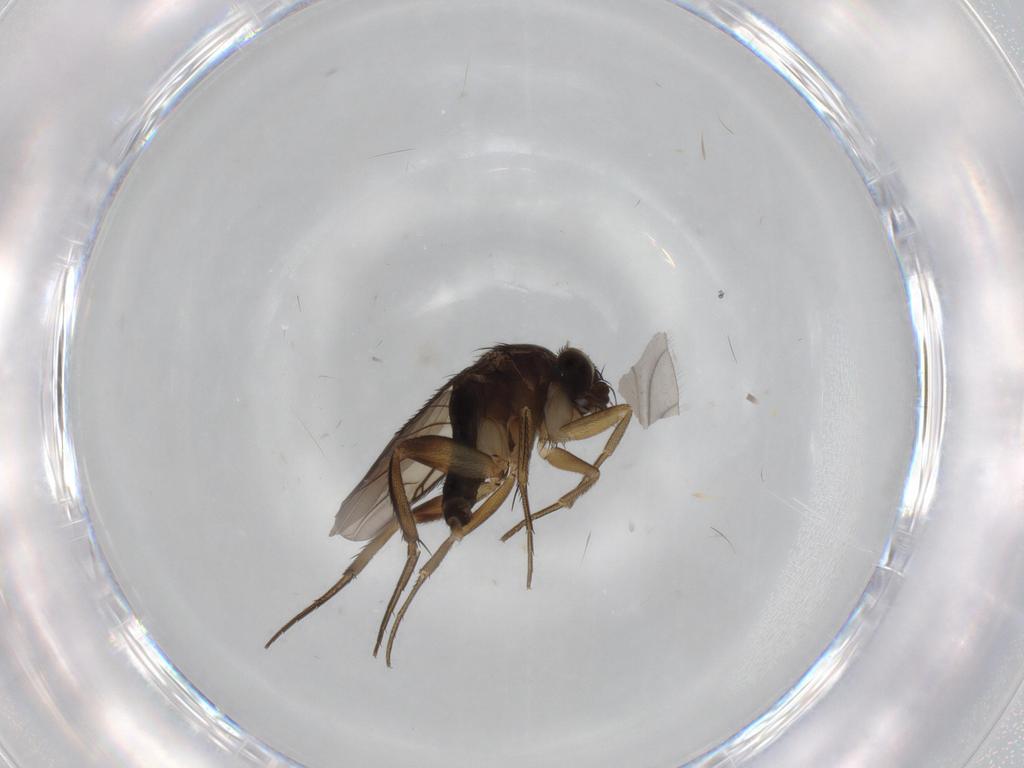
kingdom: Animalia
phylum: Arthropoda
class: Insecta
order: Diptera
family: Phoridae
